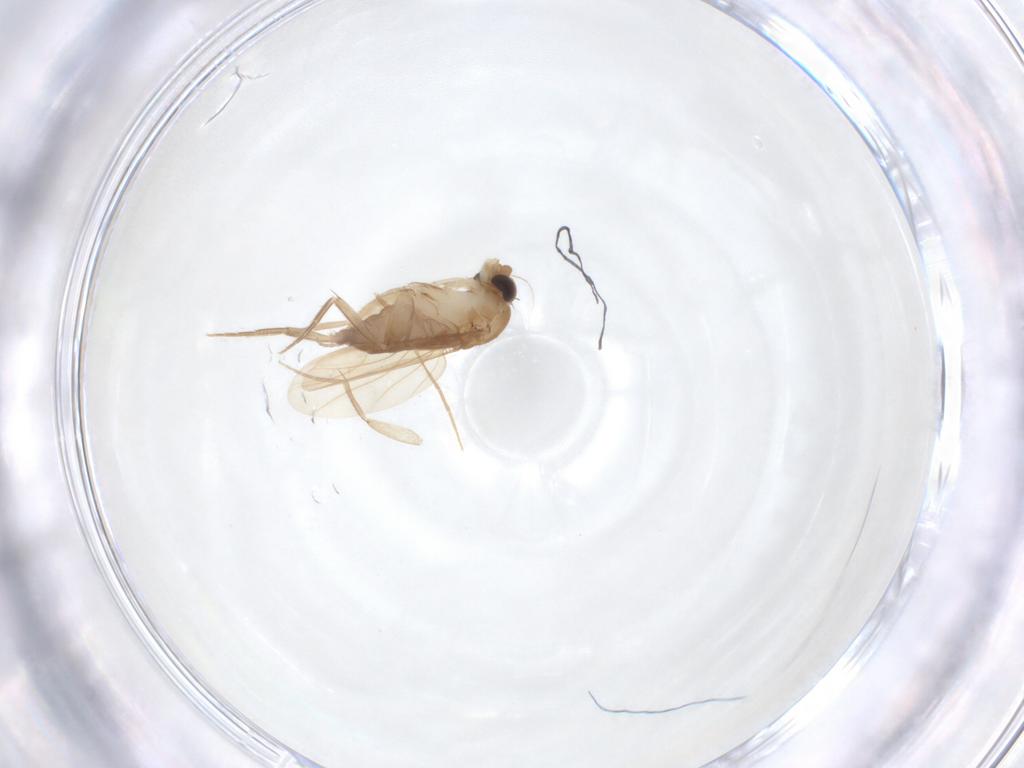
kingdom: Animalia
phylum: Arthropoda
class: Insecta
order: Diptera
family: Phoridae
